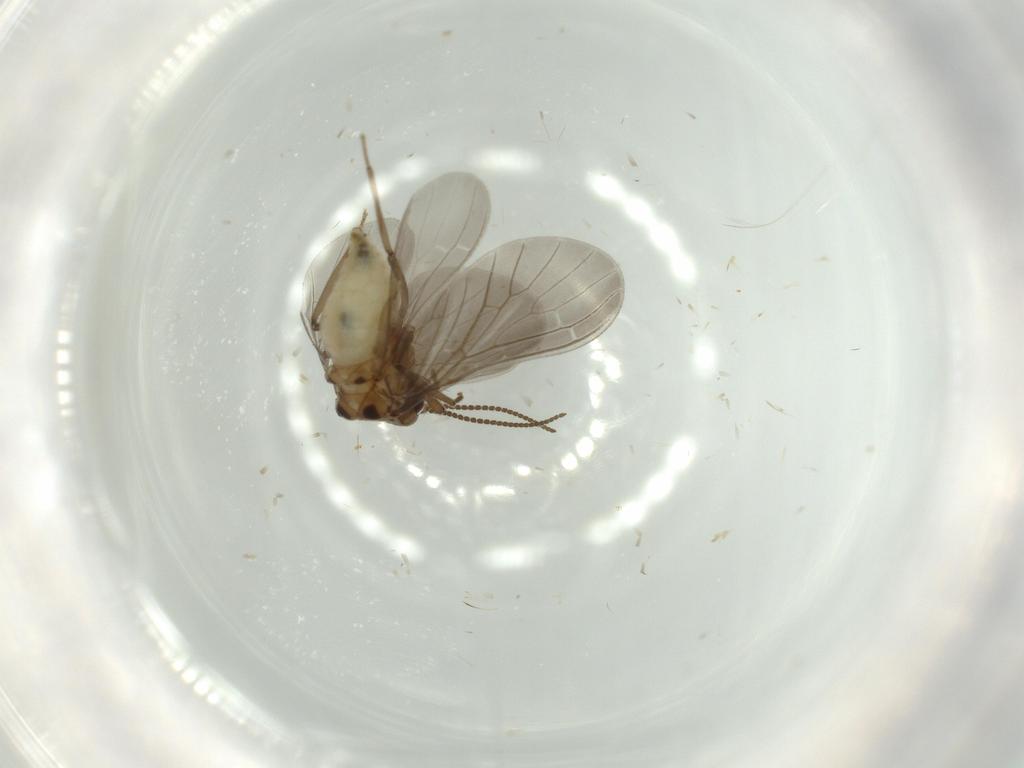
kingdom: Animalia
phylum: Arthropoda
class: Insecta
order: Neuroptera
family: Coniopterygidae
